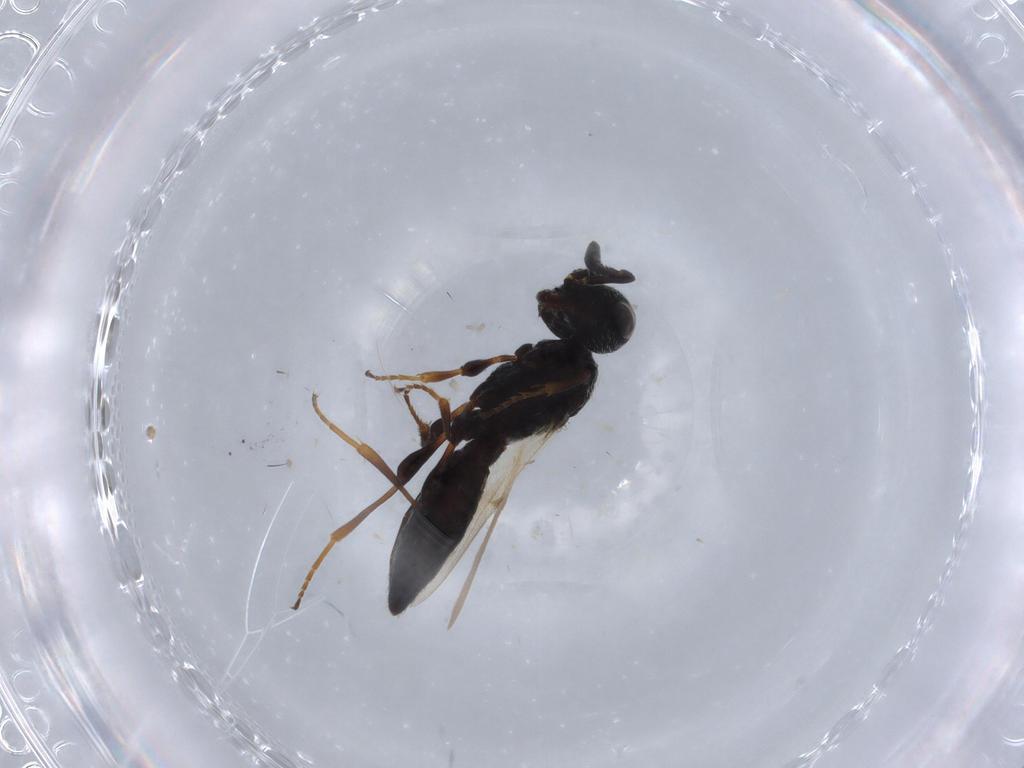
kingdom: Animalia
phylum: Arthropoda
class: Insecta
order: Hymenoptera
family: Scelionidae
